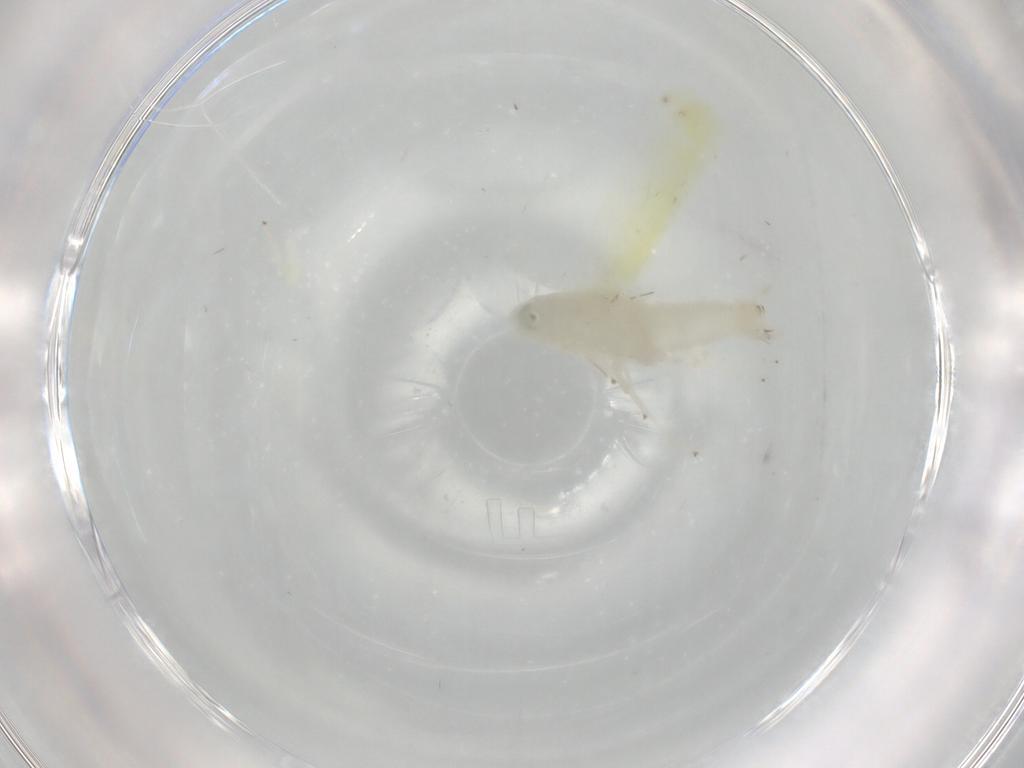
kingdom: Animalia
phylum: Arthropoda
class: Insecta
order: Hemiptera
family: Cicadellidae
